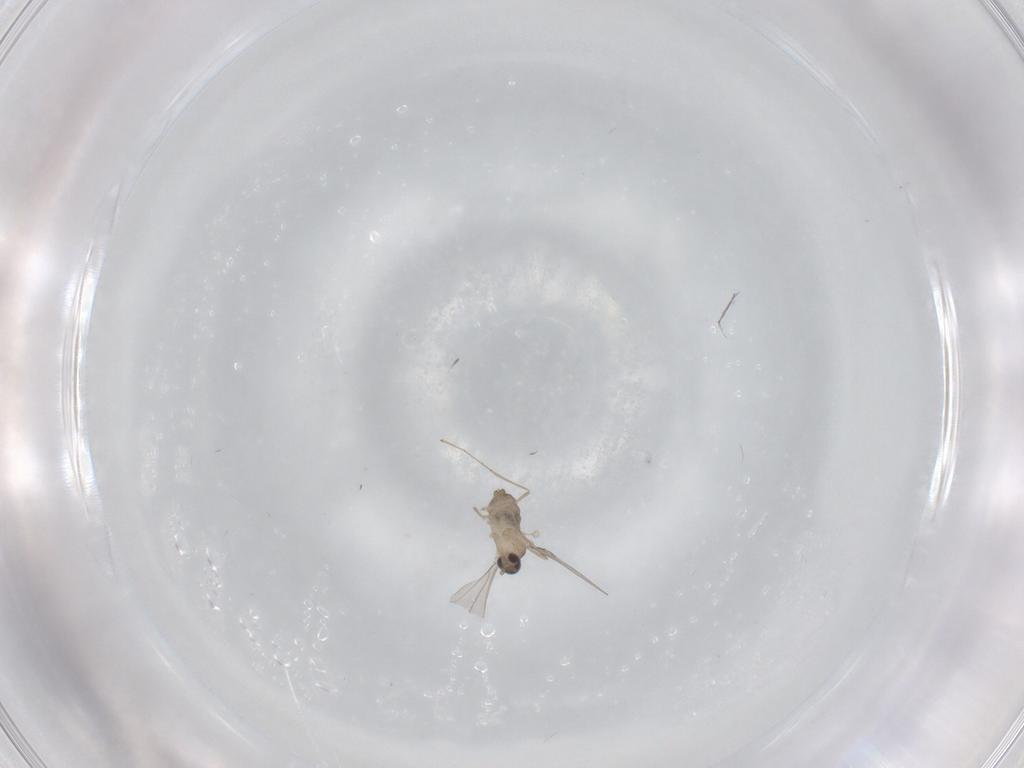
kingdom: Animalia
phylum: Arthropoda
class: Insecta
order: Diptera
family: Cecidomyiidae
